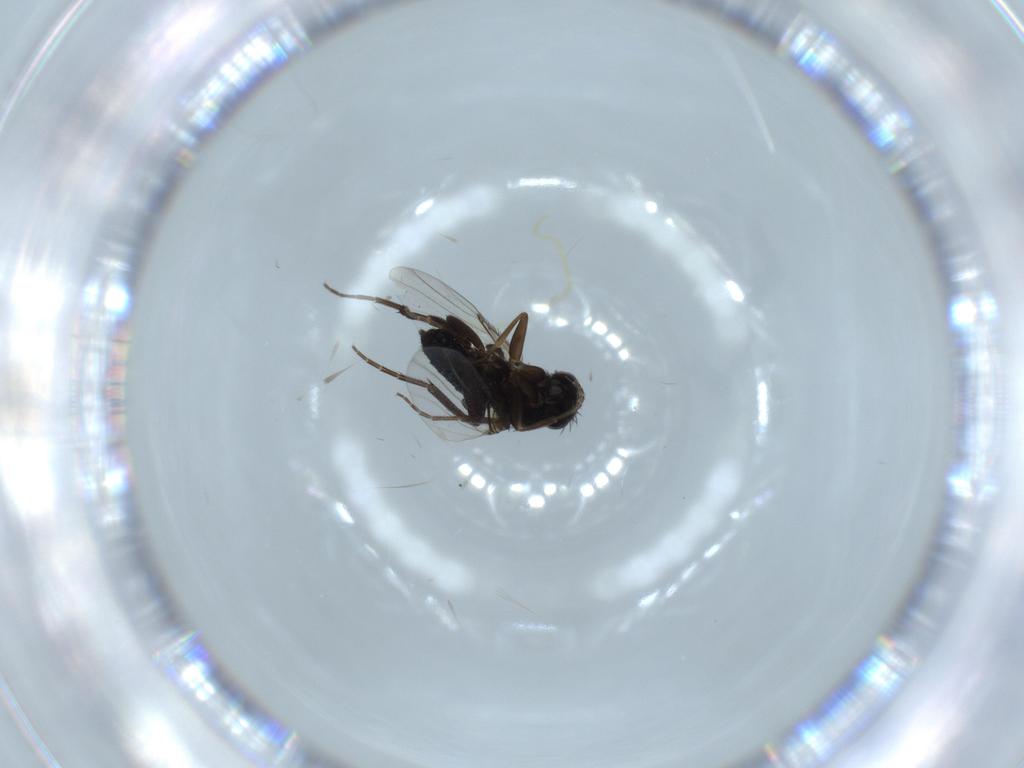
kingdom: Animalia
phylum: Arthropoda
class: Insecta
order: Diptera
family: Phoridae
